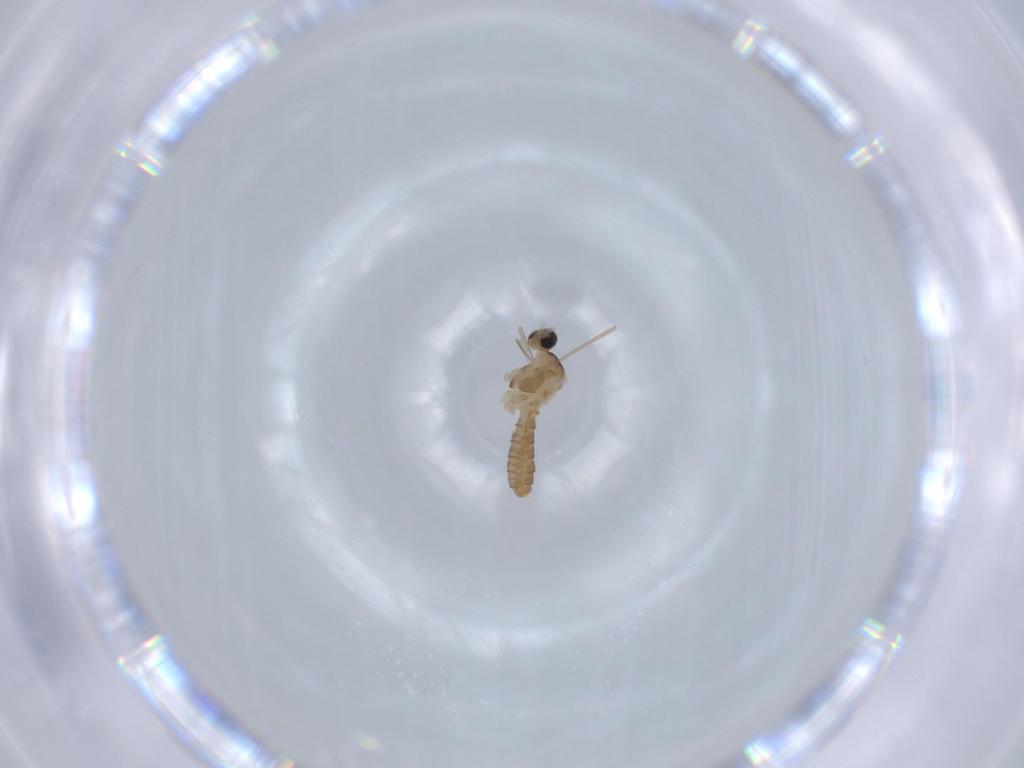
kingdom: Animalia
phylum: Arthropoda
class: Insecta
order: Diptera
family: Cecidomyiidae
